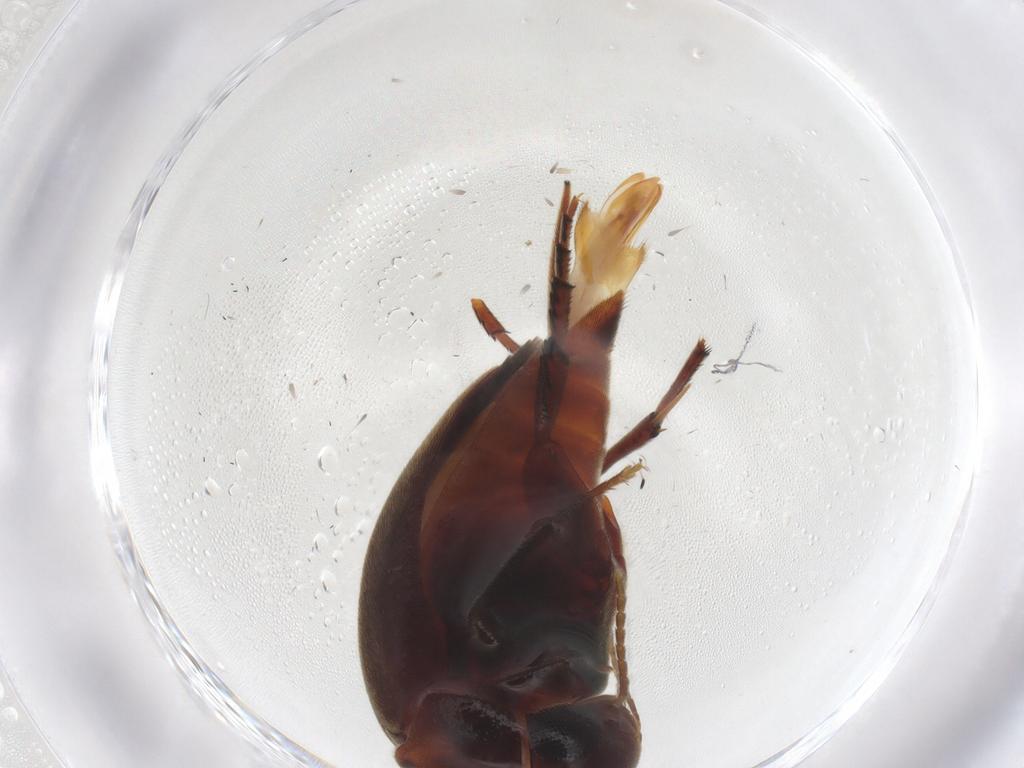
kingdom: Animalia
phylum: Arthropoda
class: Insecta
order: Coleoptera
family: Mordellidae
